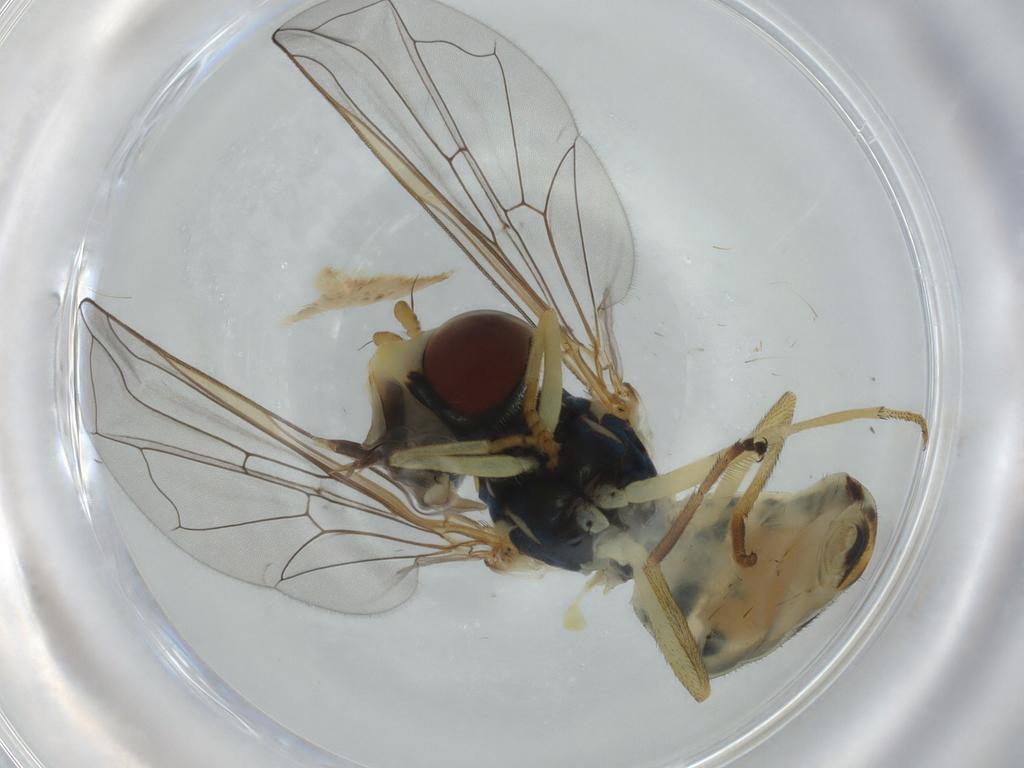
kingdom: Animalia
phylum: Arthropoda
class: Insecta
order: Diptera
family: Syrphidae
